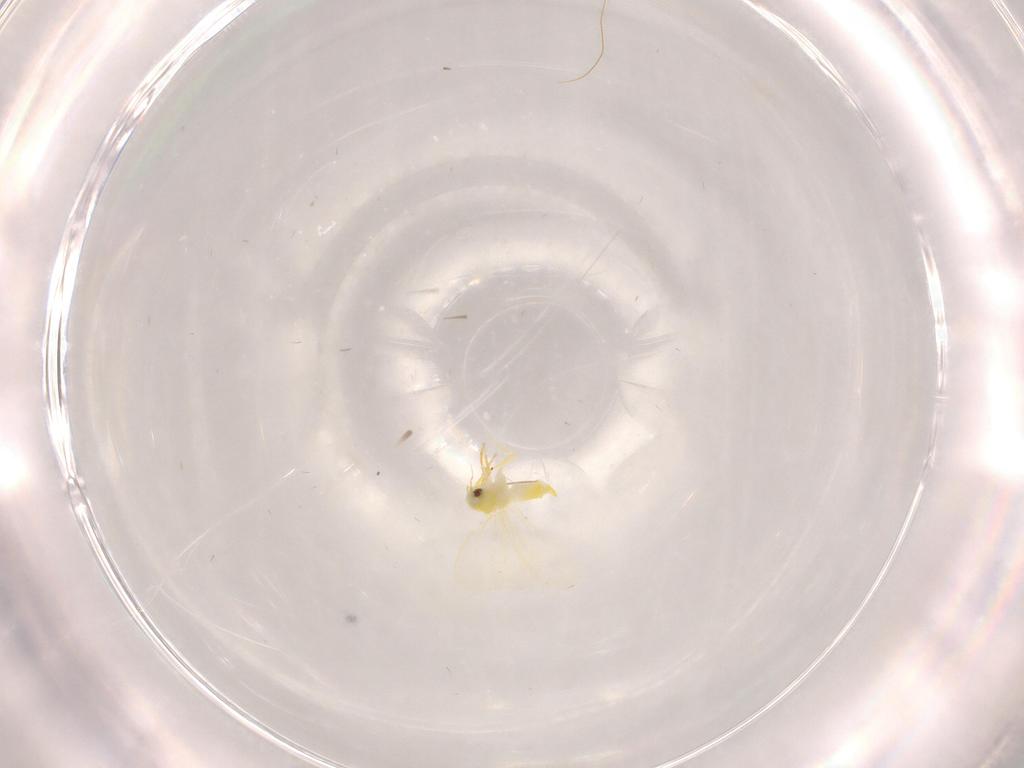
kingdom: Animalia
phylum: Arthropoda
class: Insecta
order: Hemiptera
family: Aleyrodidae
